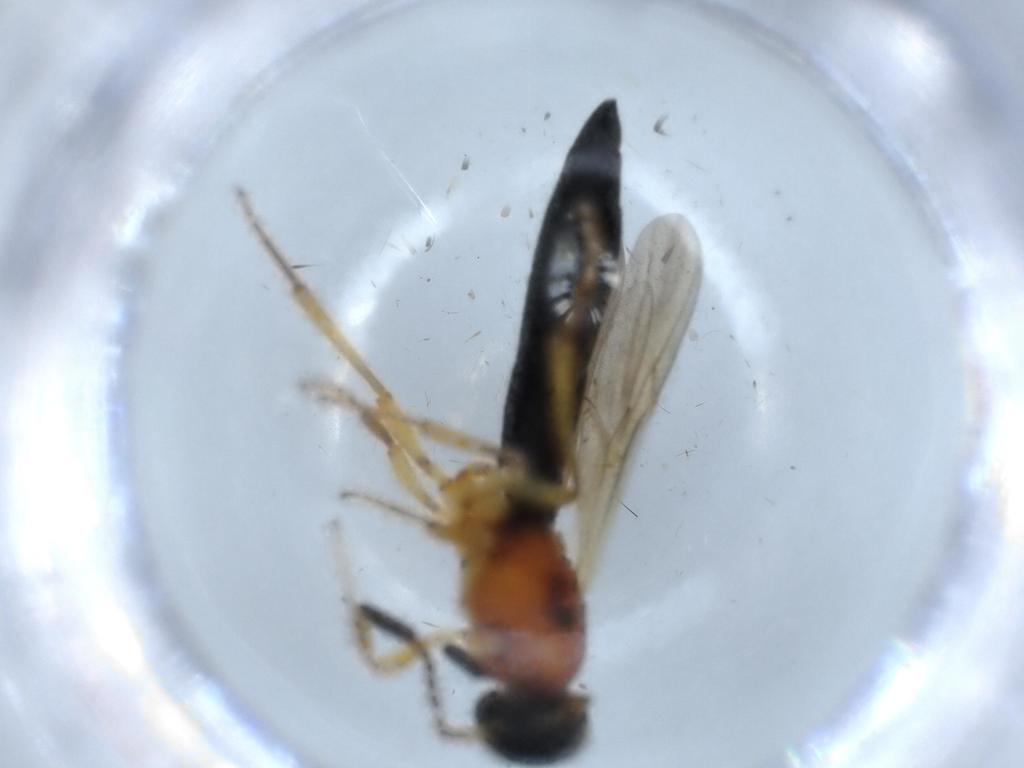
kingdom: Animalia
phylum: Arthropoda
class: Insecta
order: Hymenoptera
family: Scelionidae
